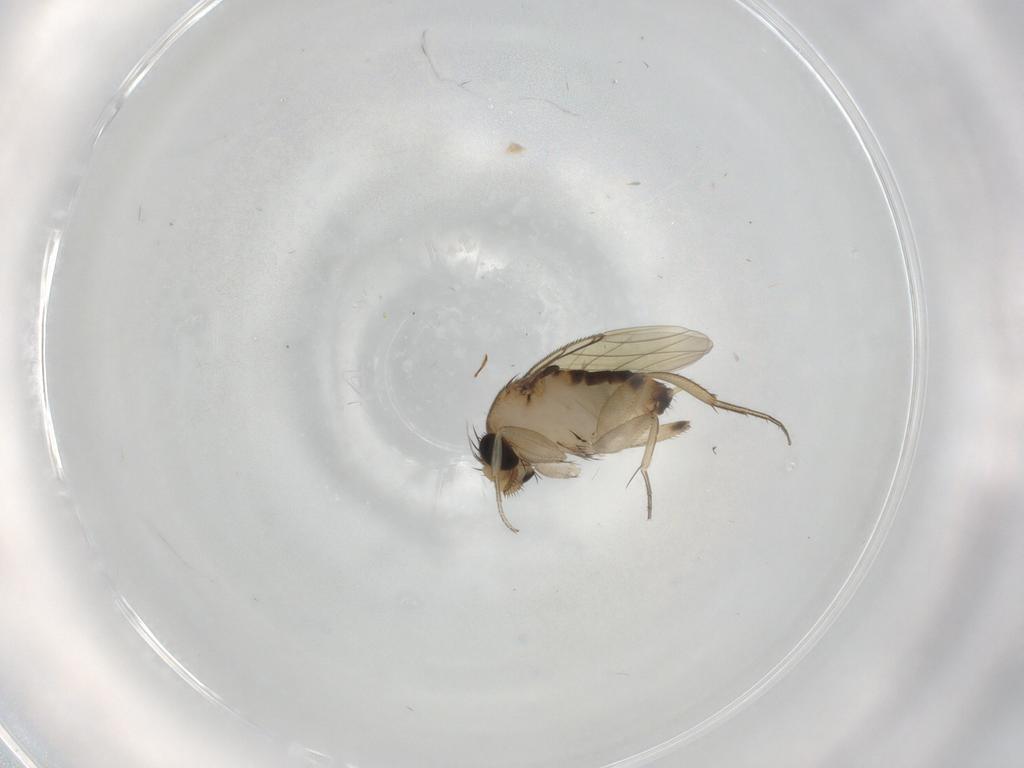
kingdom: Animalia
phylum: Arthropoda
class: Insecta
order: Diptera
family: Phoridae
